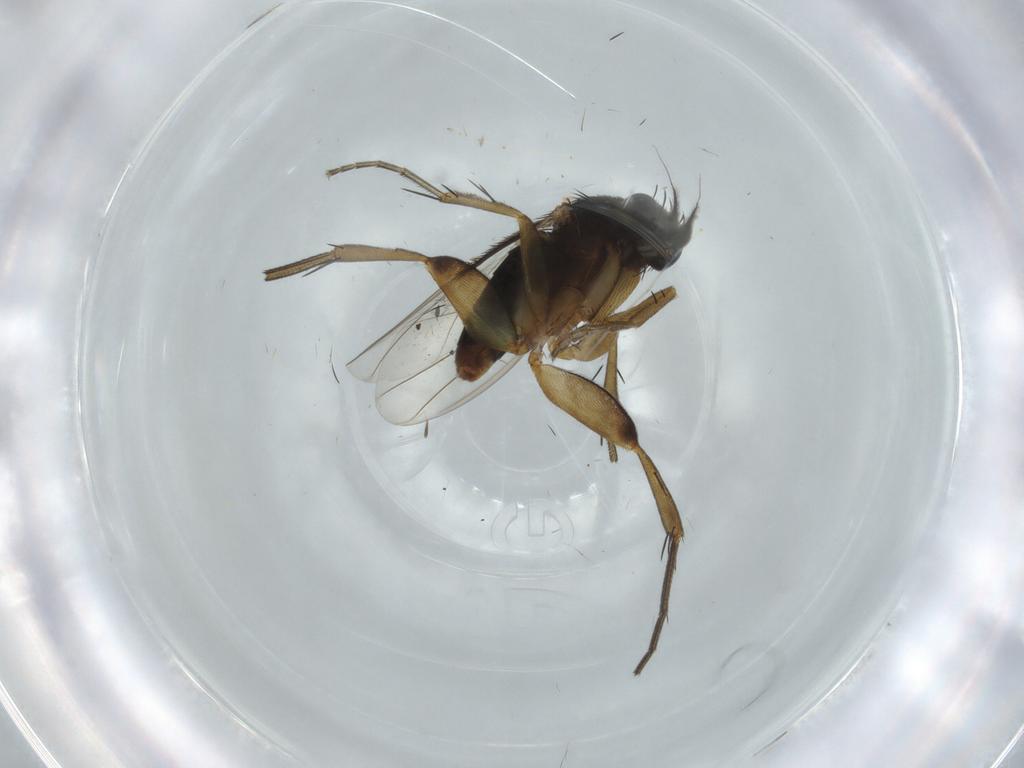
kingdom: Animalia
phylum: Arthropoda
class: Insecta
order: Diptera
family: Phoridae
